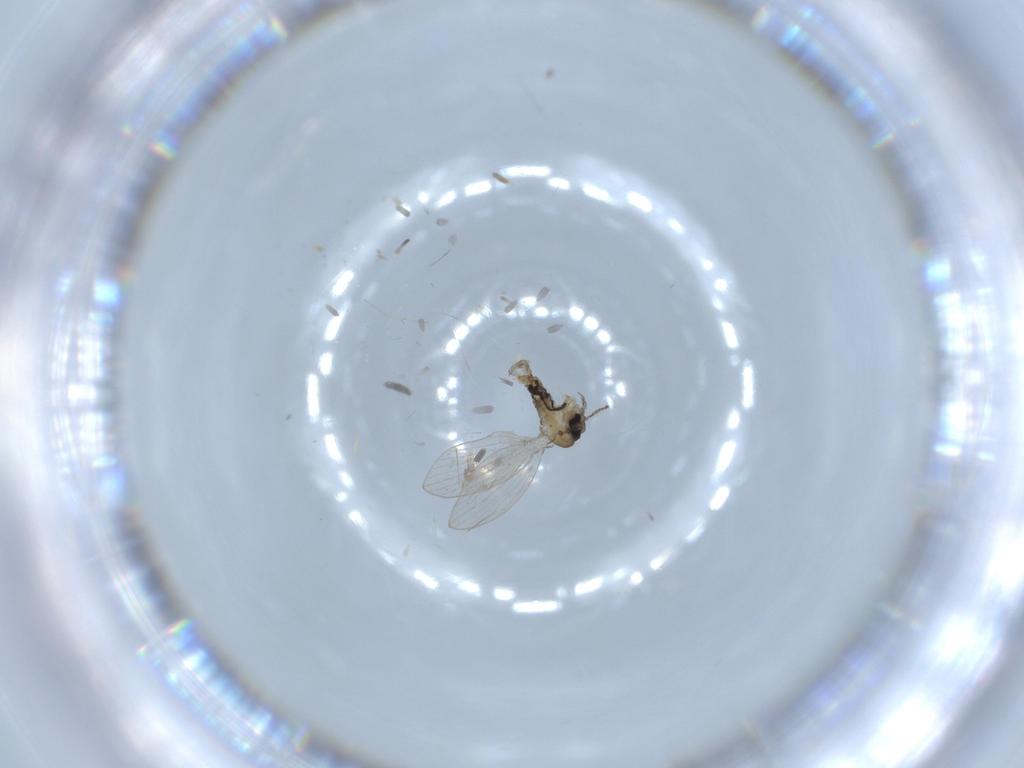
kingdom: Animalia
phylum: Arthropoda
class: Insecta
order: Diptera
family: Psychodidae
